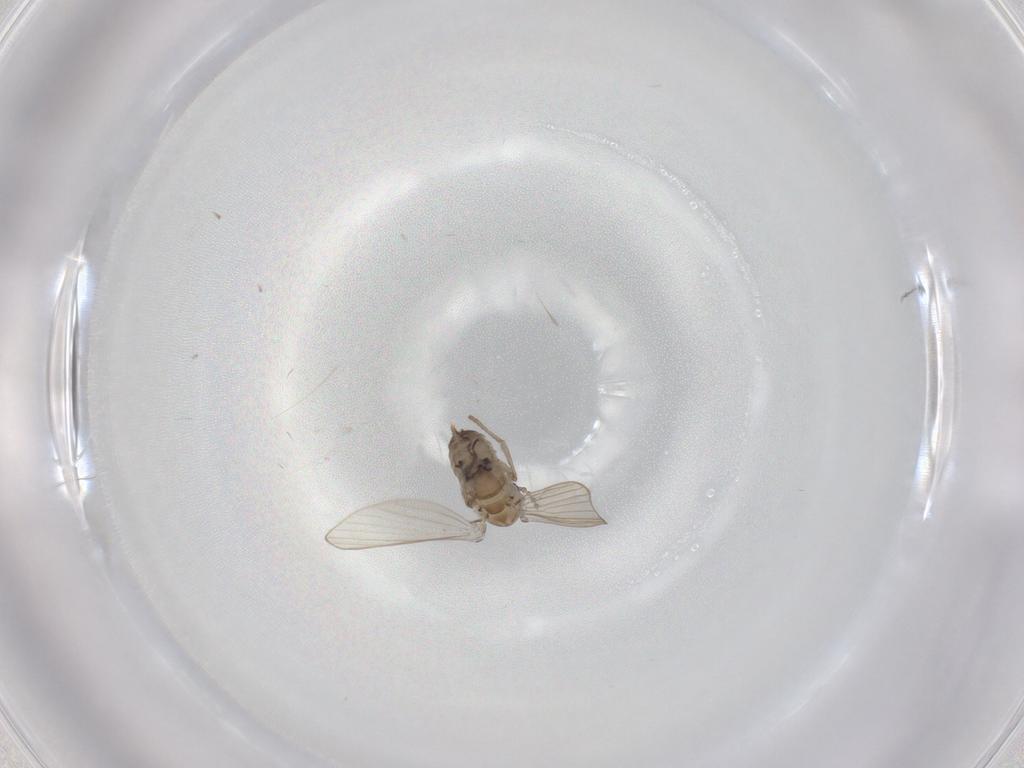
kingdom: Animalia
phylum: Arthropoda
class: Insecta
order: Diptera
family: Psychodidae
